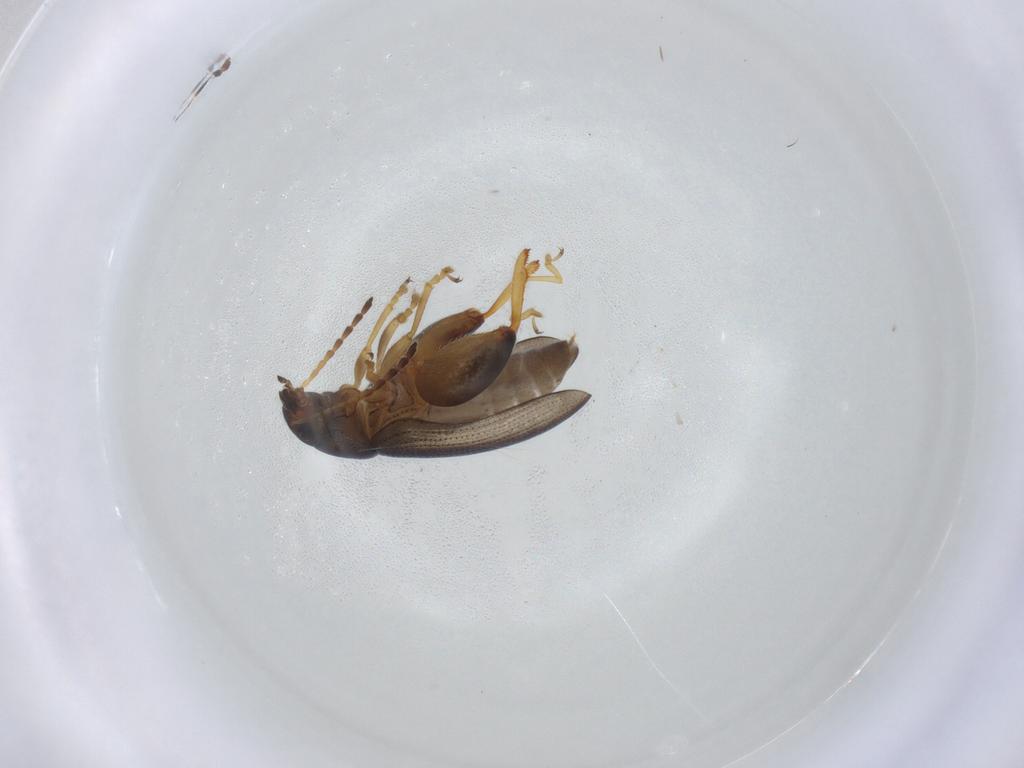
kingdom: Animalia
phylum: Arthropoda
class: Insecta
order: Coleoptera
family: Chrysomelidae
